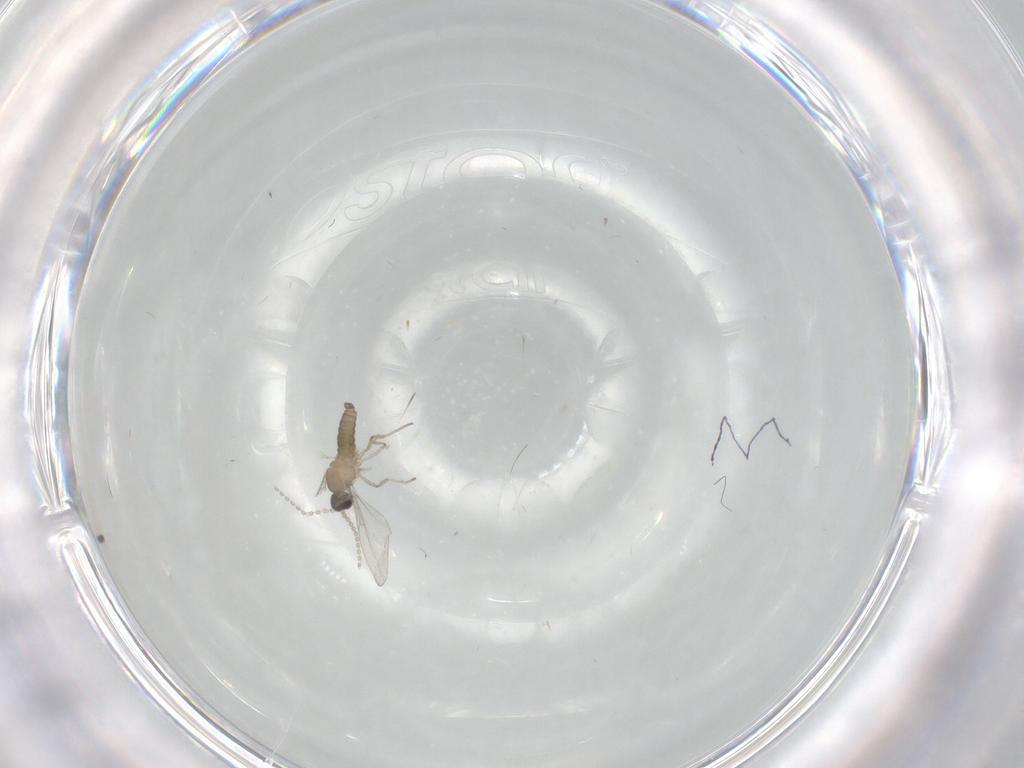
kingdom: Animalia
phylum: Arthropoda
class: Insecta
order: Diptera
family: Cecidomyiidae
